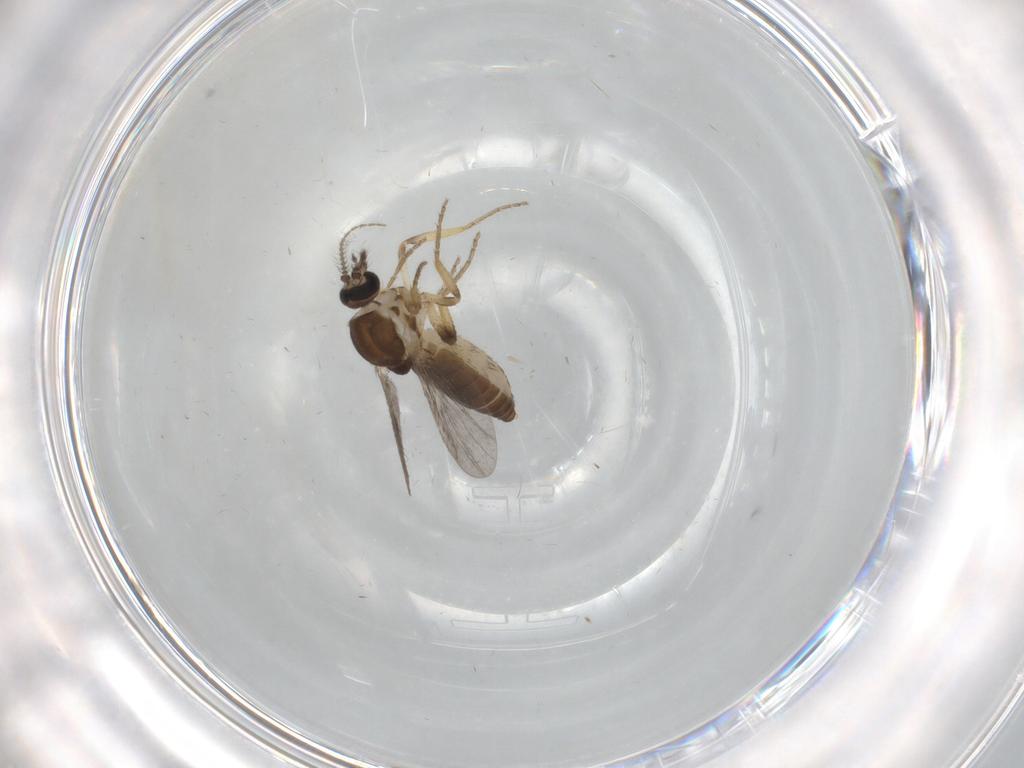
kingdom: Animalia
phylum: Arthropoda
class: Insecta
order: Diptera
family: Ceratopogonidae
